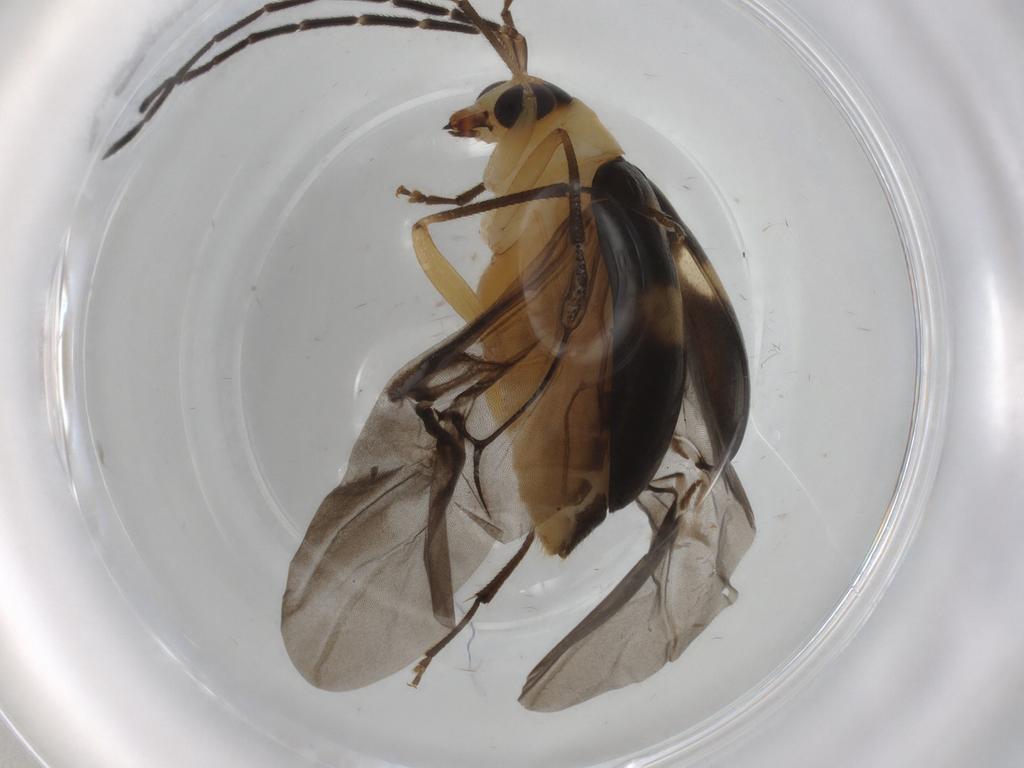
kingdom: Animalia
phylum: Arthropoda
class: Insecta
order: Coleoptera
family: Chrysomelidae
